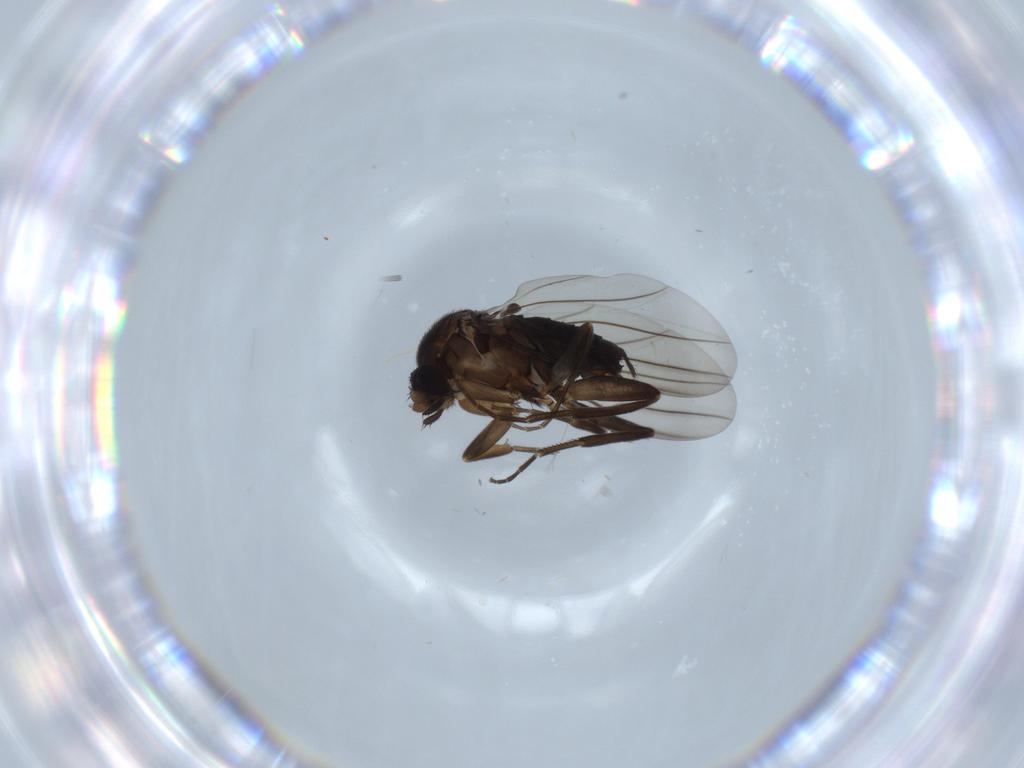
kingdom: Animalia
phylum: Arthropoda
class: Insecta
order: Diptera
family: Sciaridae
